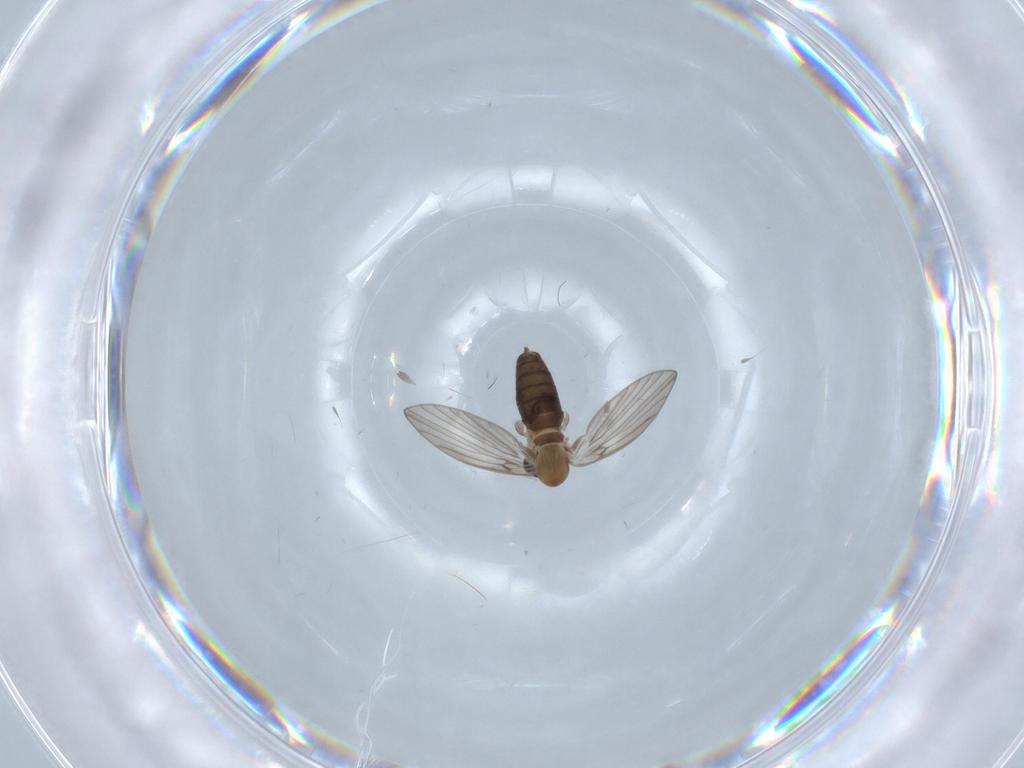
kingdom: Animalia
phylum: Arthropoda
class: Insecta
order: Diptera
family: Psychodidae
